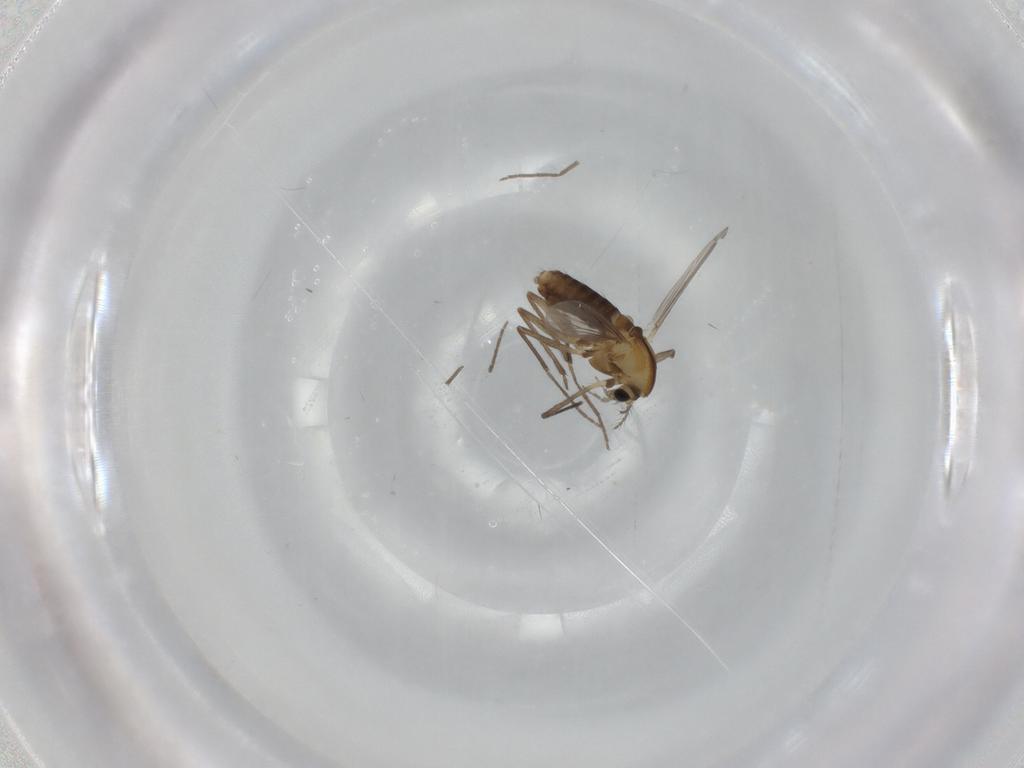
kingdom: Animalia
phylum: Arthropoda
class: Insecta
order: Diptera
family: Chironomidae
